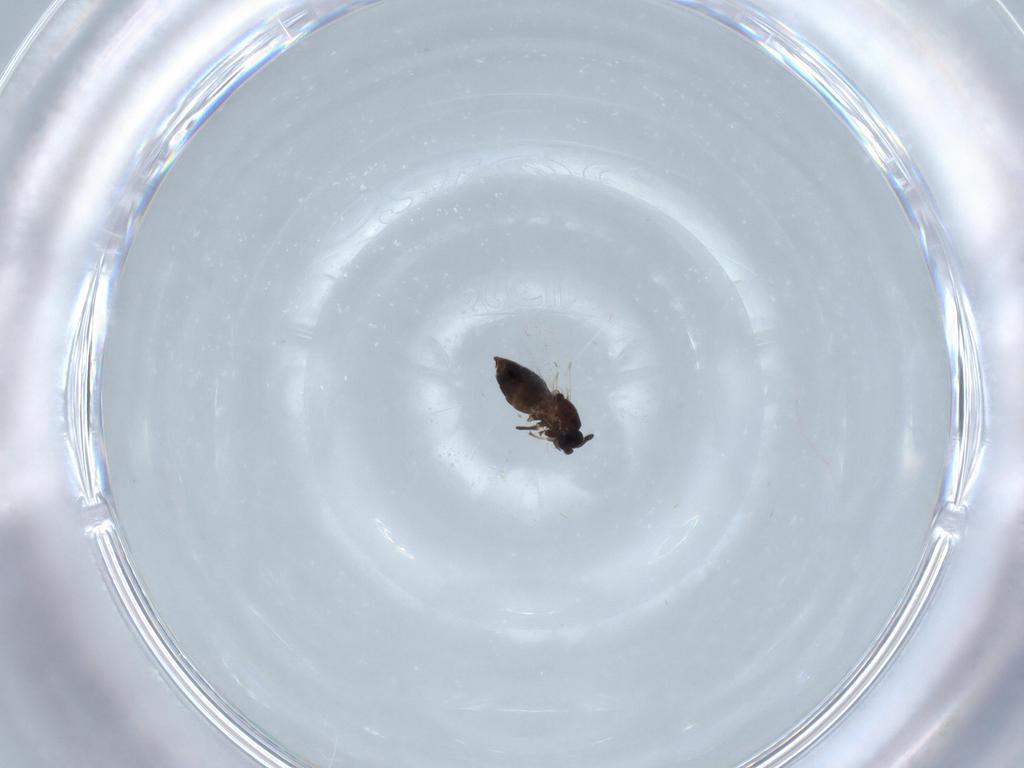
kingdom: Animalia
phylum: Arthropoda
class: Insecta
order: Diptera
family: Scatopsidae
